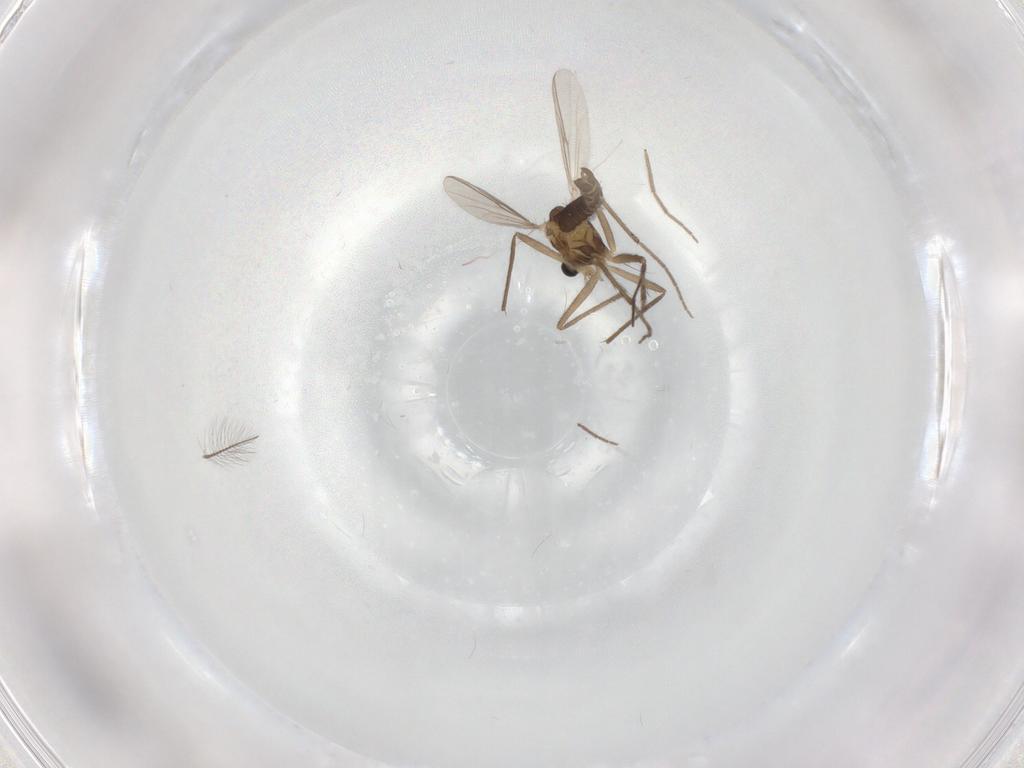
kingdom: Animalia
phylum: Arthropoda
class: Insecta
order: Diptera
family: Chironomidae
